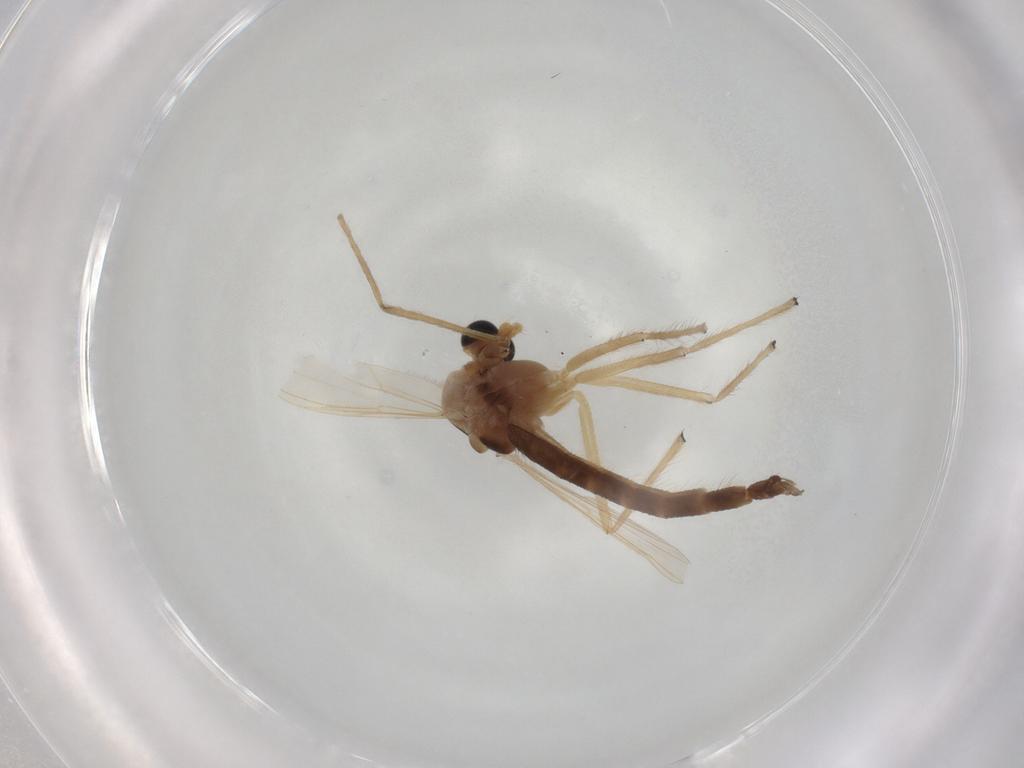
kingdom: Animalia
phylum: Arthropoda
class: Insecta
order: Diptera
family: Chironomidae
